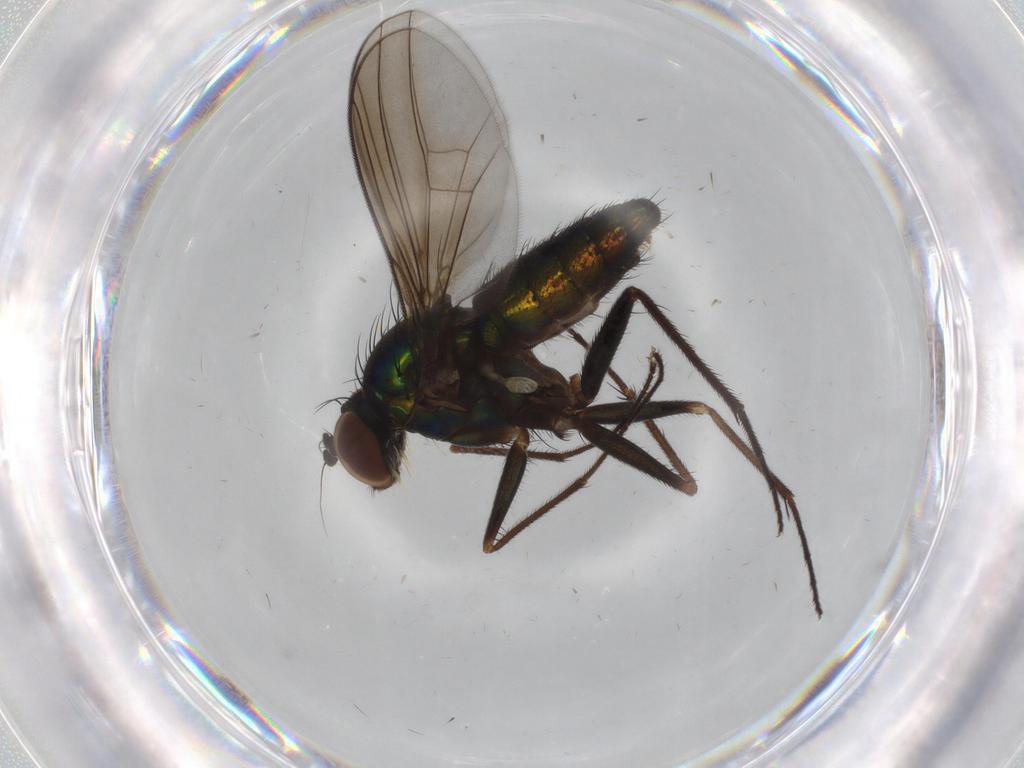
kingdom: Animalia
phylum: Arthropoda
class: Insecta
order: Diptera
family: Dolichopodidae
